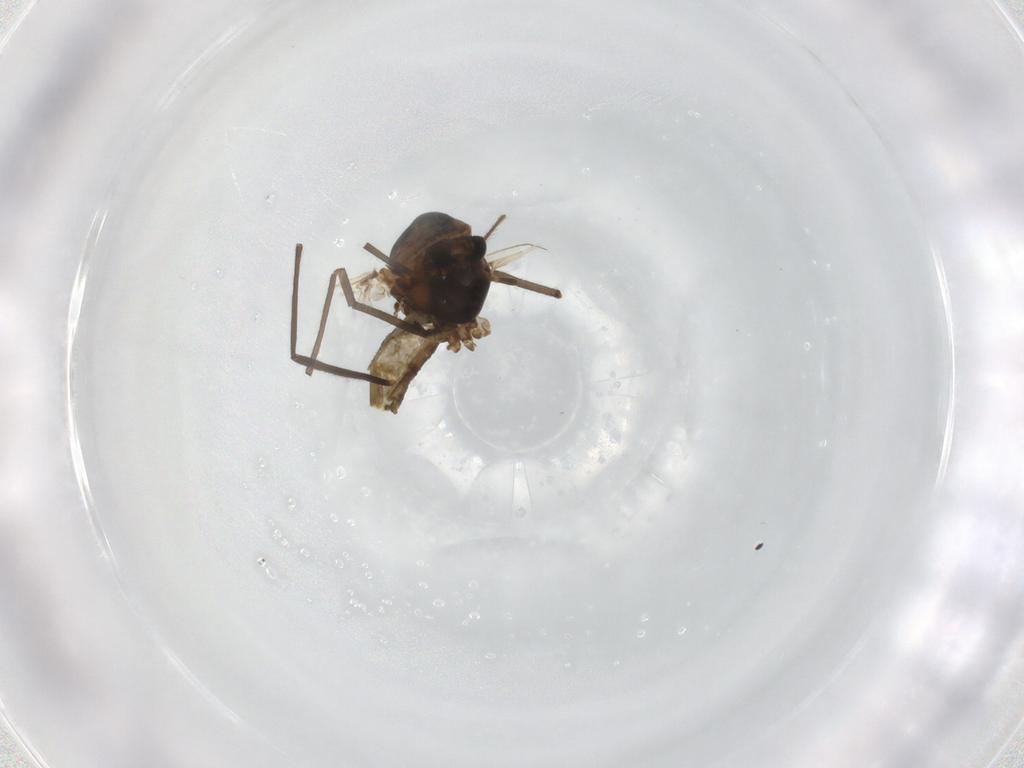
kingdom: Animalia
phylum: Arthropoda
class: Insecta
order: Diptera
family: Chironomidae
